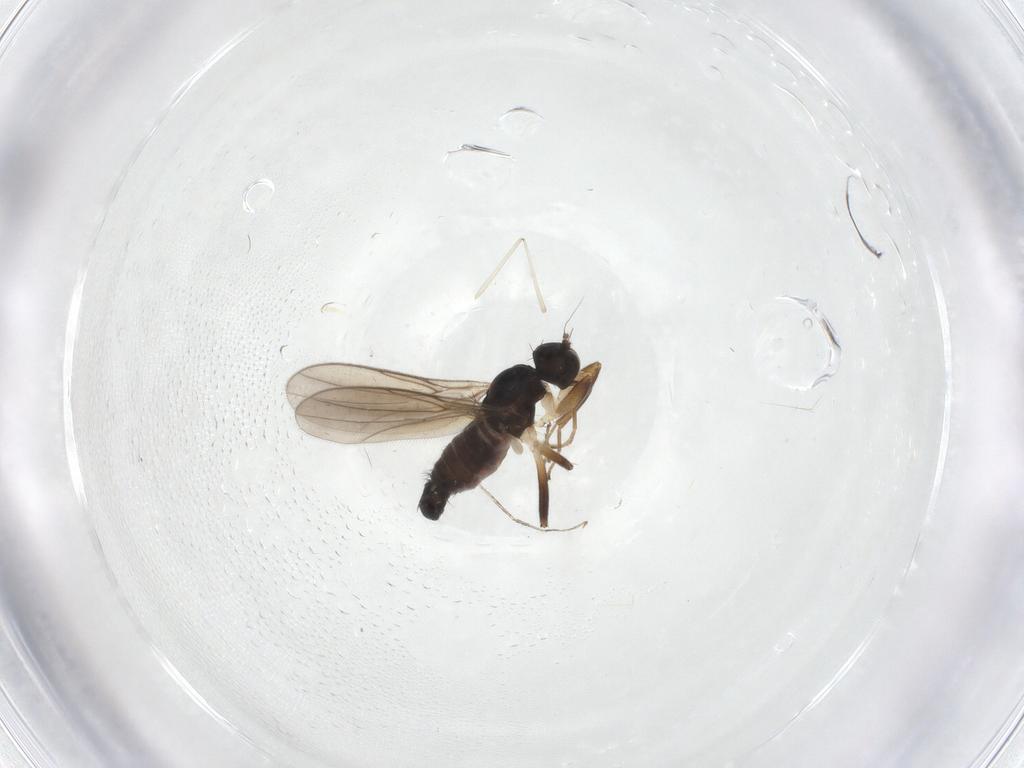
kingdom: Animalia
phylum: Arthropoda
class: Insecta
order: Diptera
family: Hybotidae
